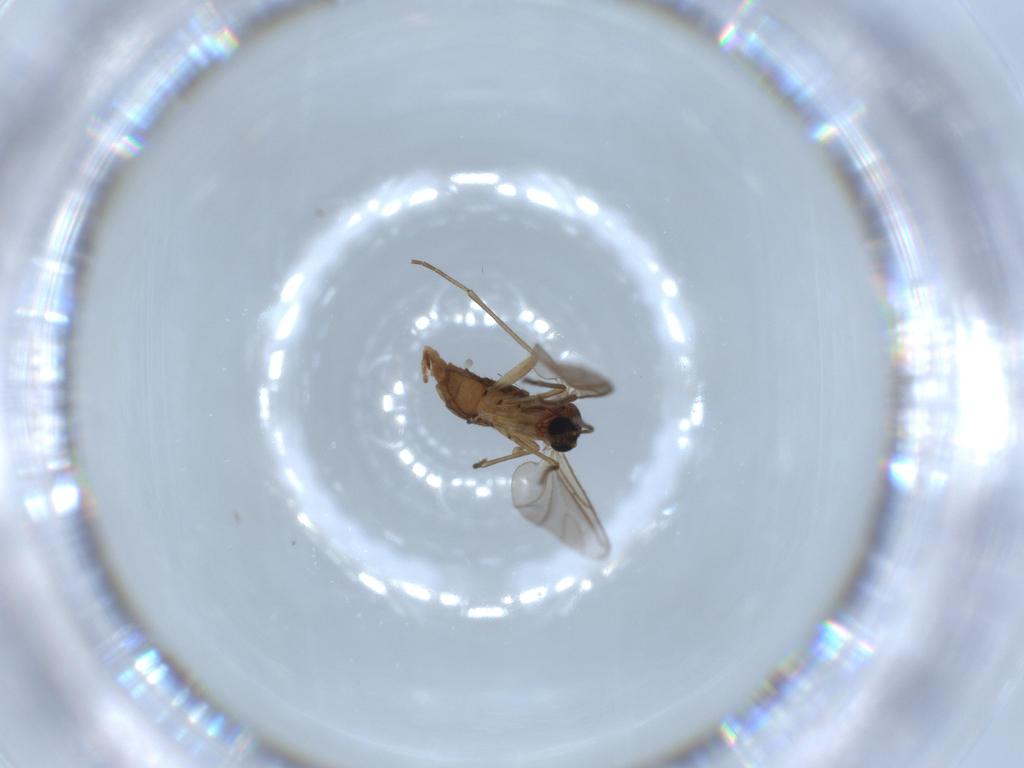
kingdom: Animalia
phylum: Arthropoda
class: Insecta
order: Diptera
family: Sciaridae
